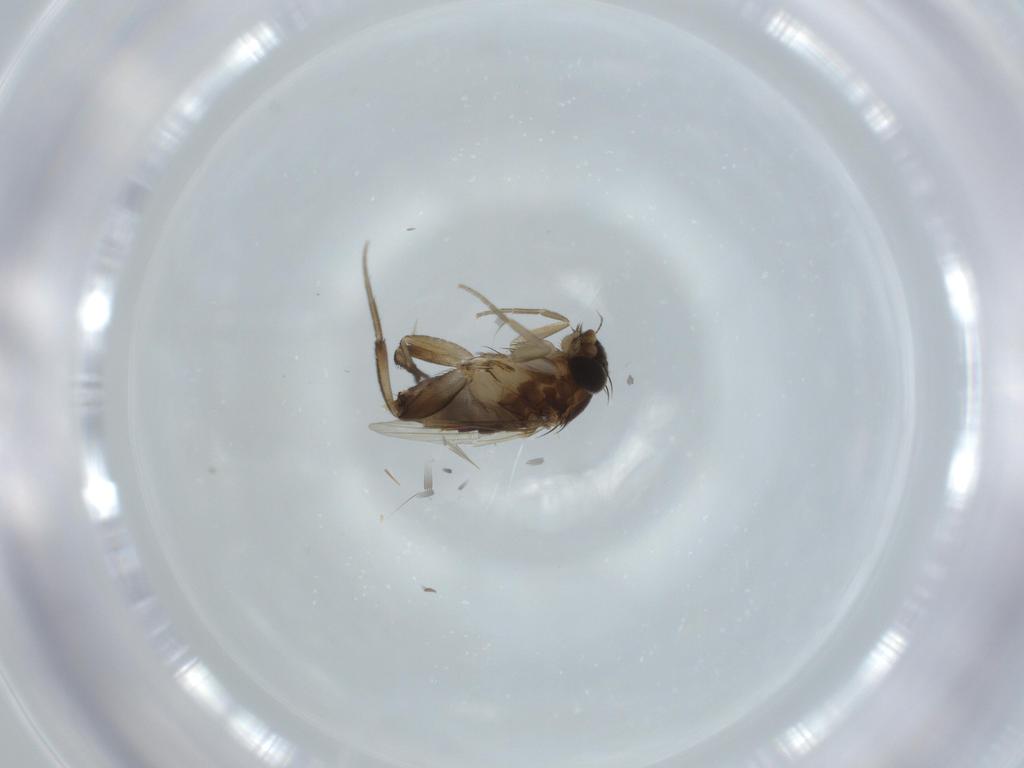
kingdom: Animalia
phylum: Arthropoda
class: Insecta
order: Diptera
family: Phoridae
